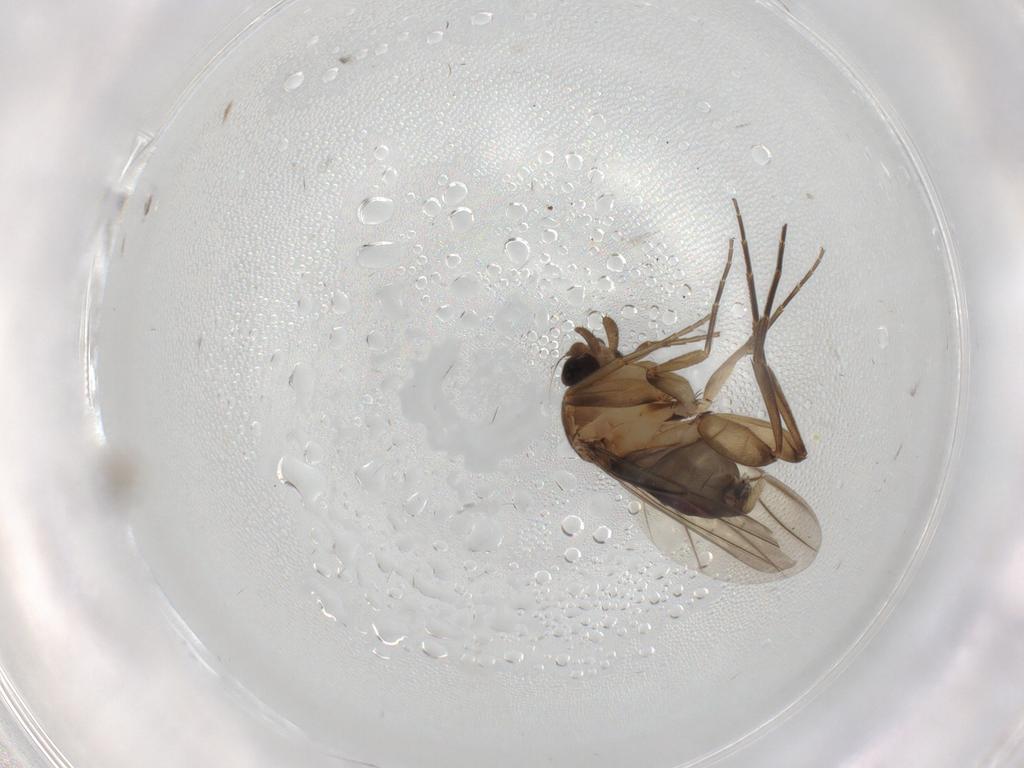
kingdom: Animalia
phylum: Arthropoda
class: Insecta
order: Diptera
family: Phoridae
